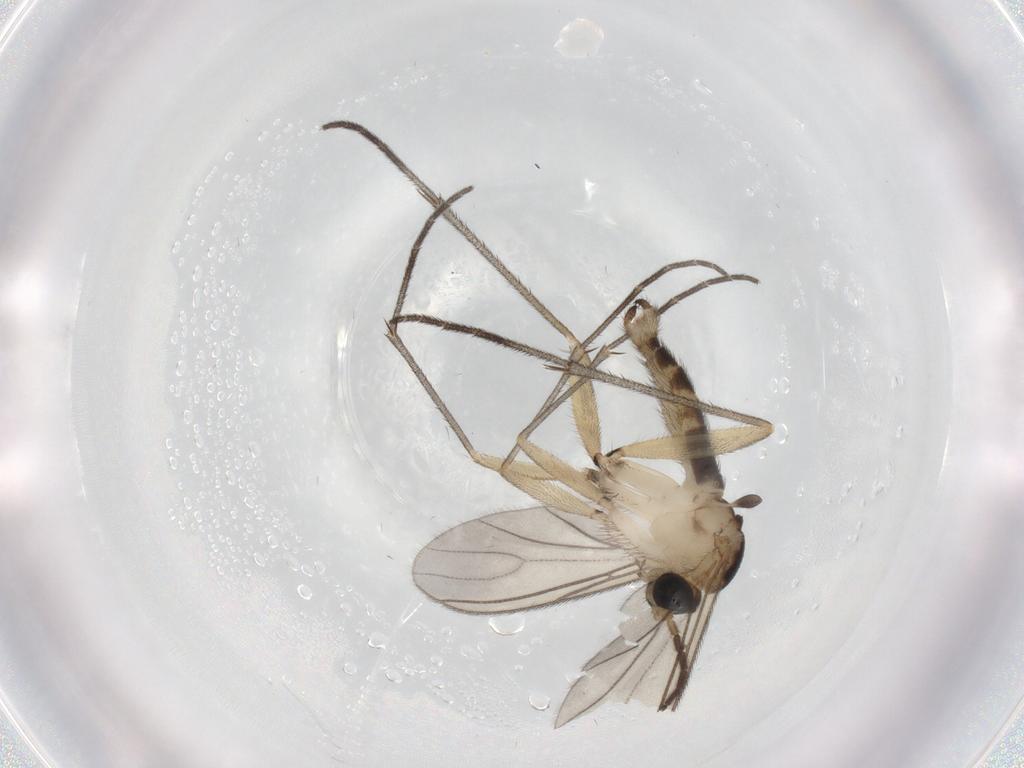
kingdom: Animalia
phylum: Arthropoda
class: Insecta
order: Diptera
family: Sciaridae
